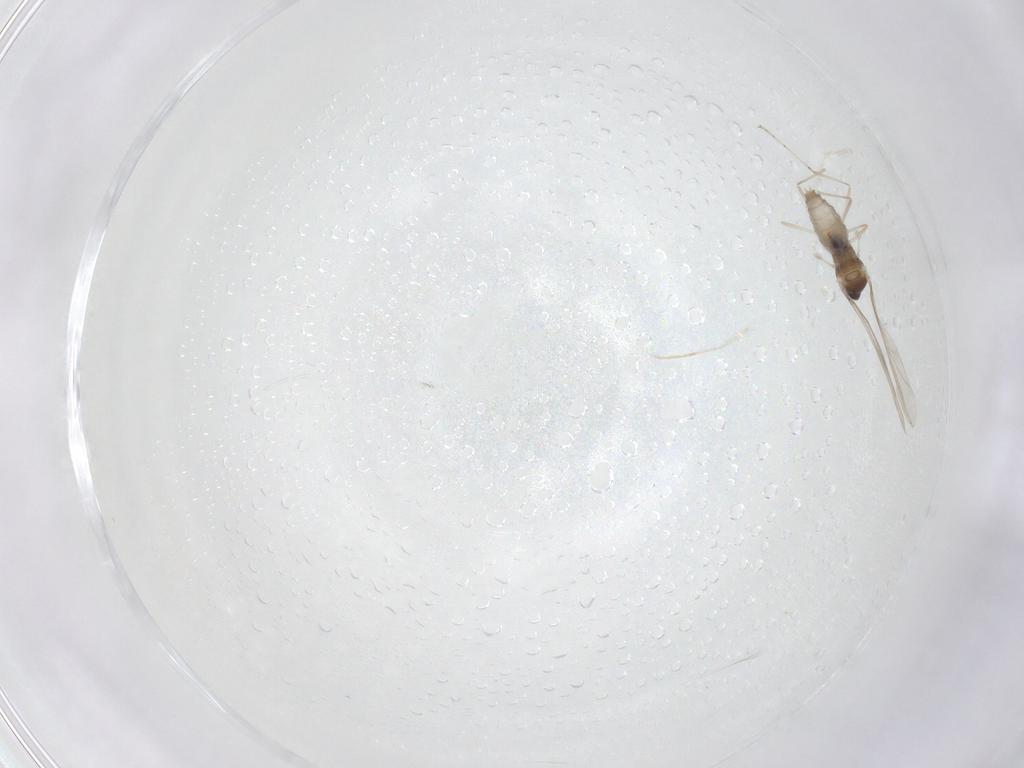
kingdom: Animalia
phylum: Arthropoda
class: Insecta
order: Diptera
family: Cecidomyiidae
